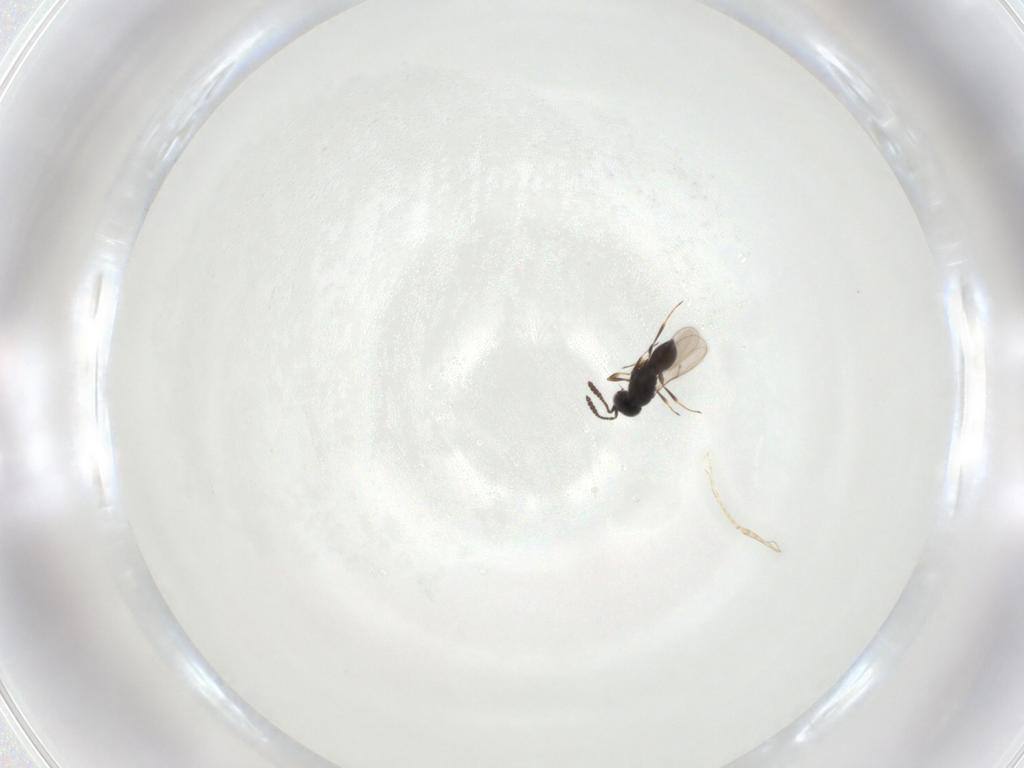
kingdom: Animalia
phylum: Arthropoda
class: Insecta
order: Hymenoptera
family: Scelionidae
